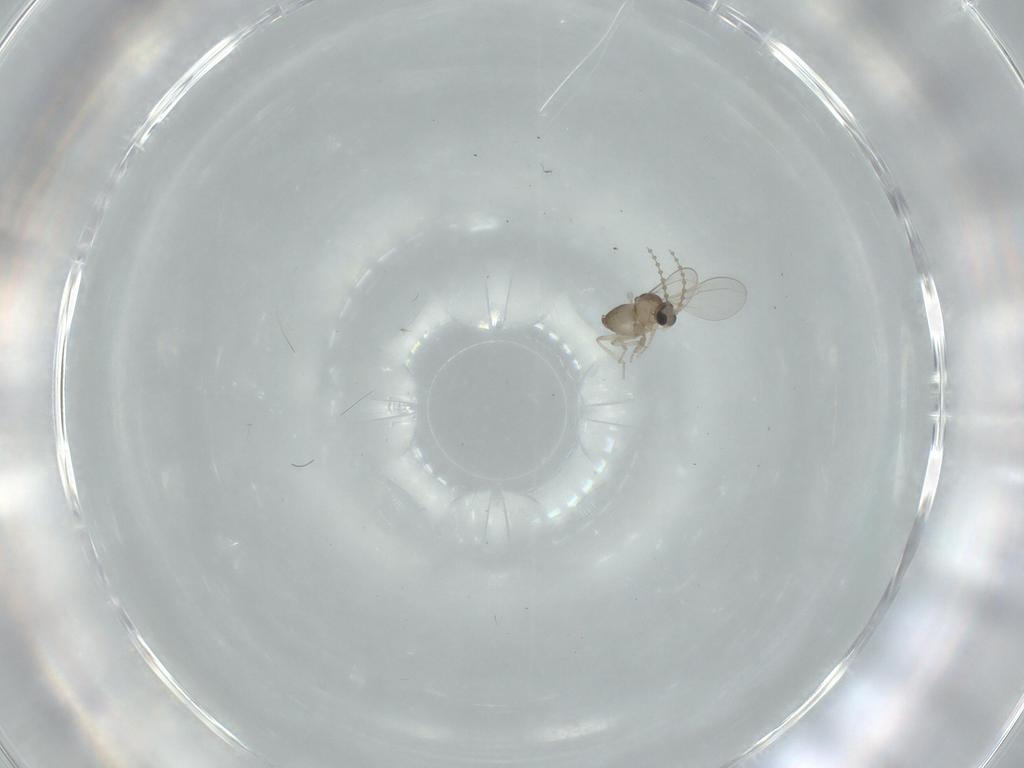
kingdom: Animalia
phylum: Arthropoda
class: Insecta
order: Diptera
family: Cecidomyiidae
